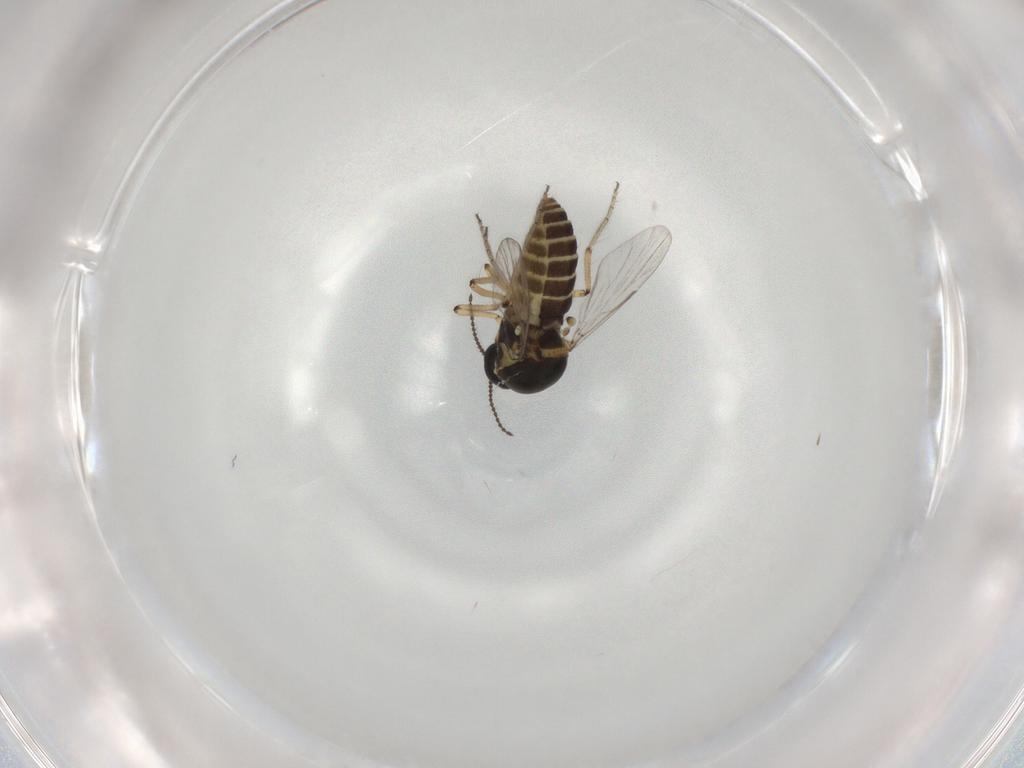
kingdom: Animalia
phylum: Arthropoda
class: Insecta
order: Diptera
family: Ceratopogonidae
